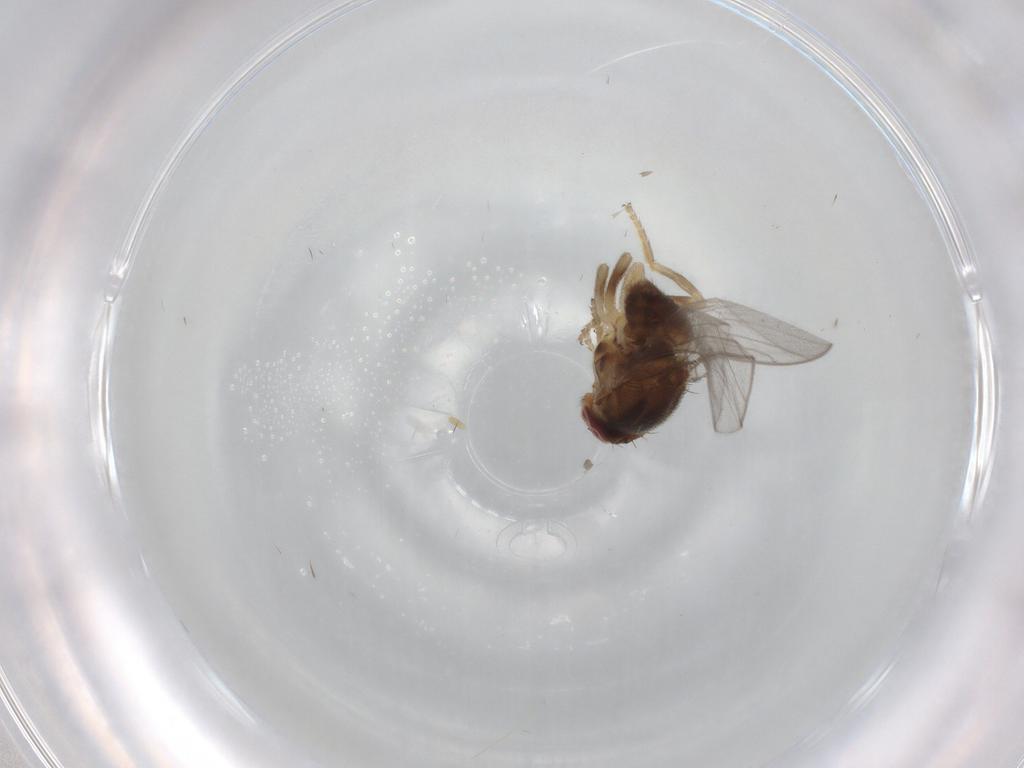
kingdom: Animalia
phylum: Arthropoda
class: Insecta
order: Diptera
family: Chloropidae
